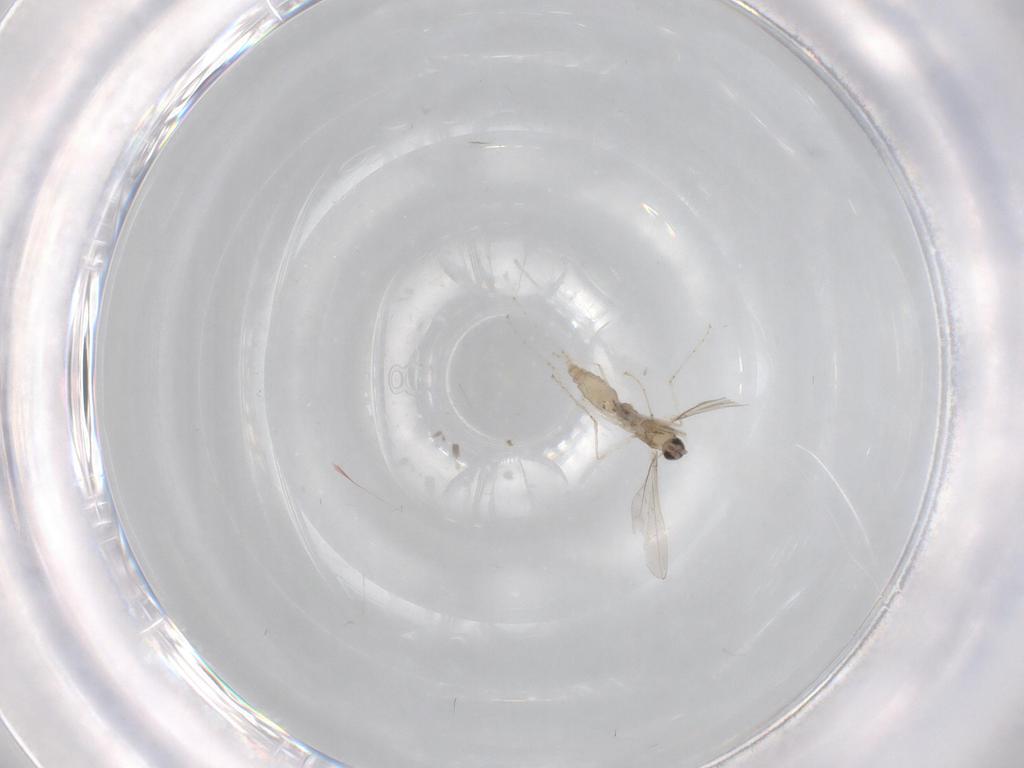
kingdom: Animalia
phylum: Arthropoda
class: Insecta
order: Diptera
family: Cecidomyiidae
